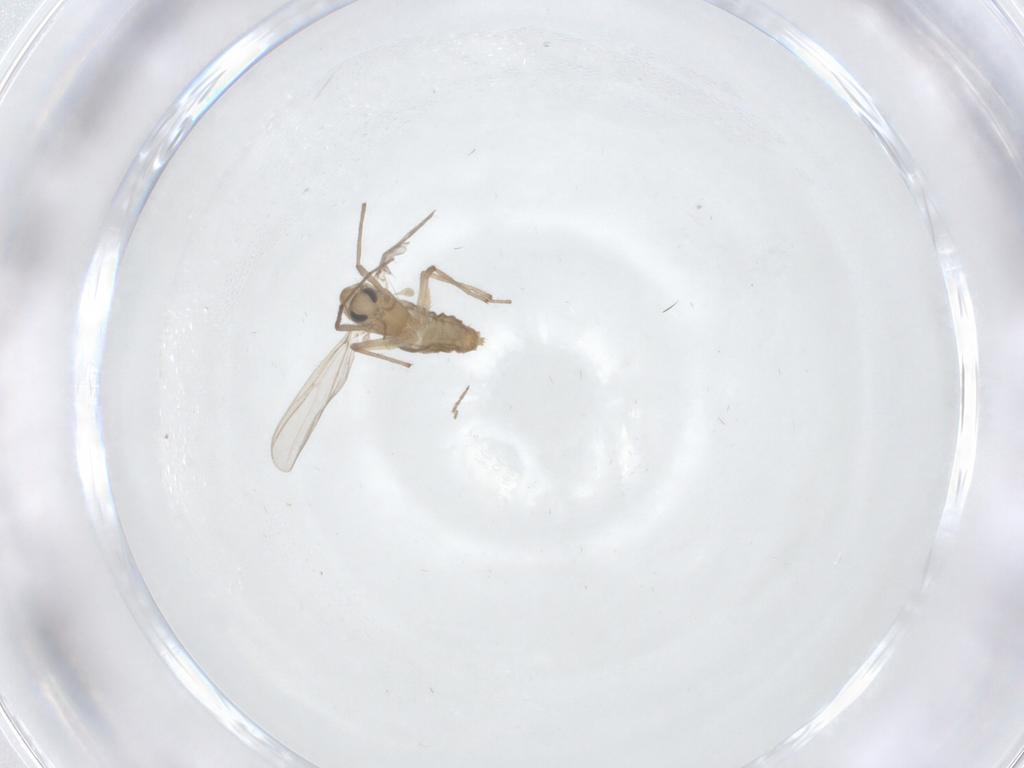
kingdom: Animalia
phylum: Arthropoda
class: Insecta
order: Diptera
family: Chironomidae
